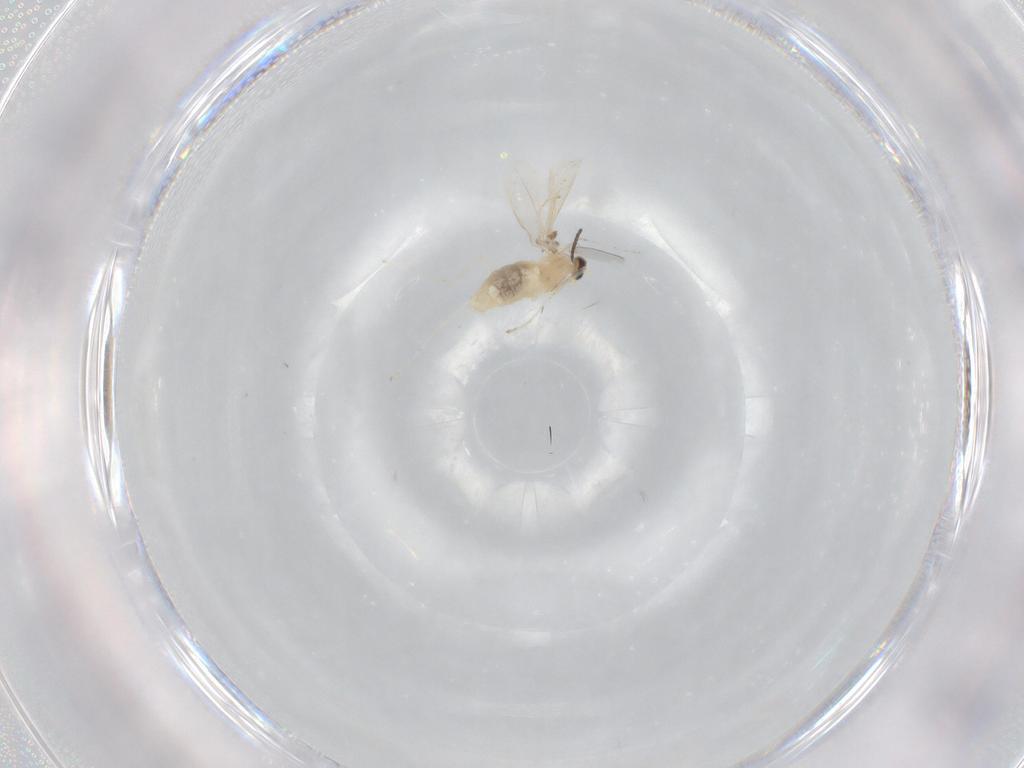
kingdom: Animalia
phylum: Arthropoda
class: Insecta
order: Diptera
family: Cecidomyiidae
